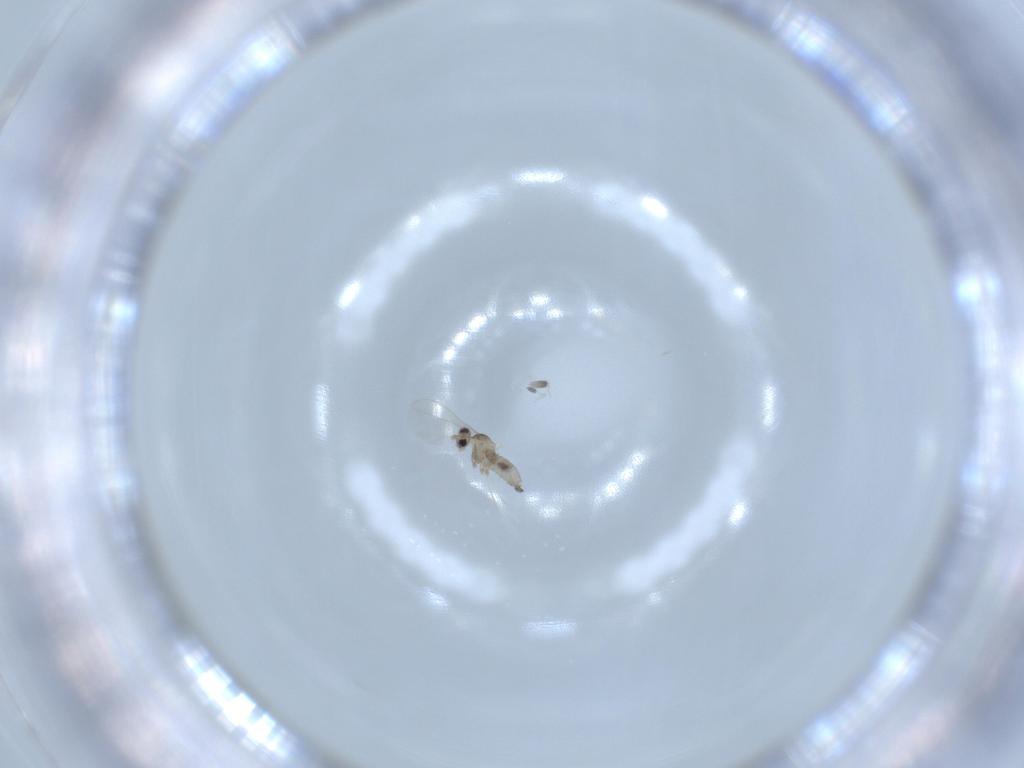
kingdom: Animalia
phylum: Arthropoda
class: Insecta
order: Diptera
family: Cecidomyiidae
